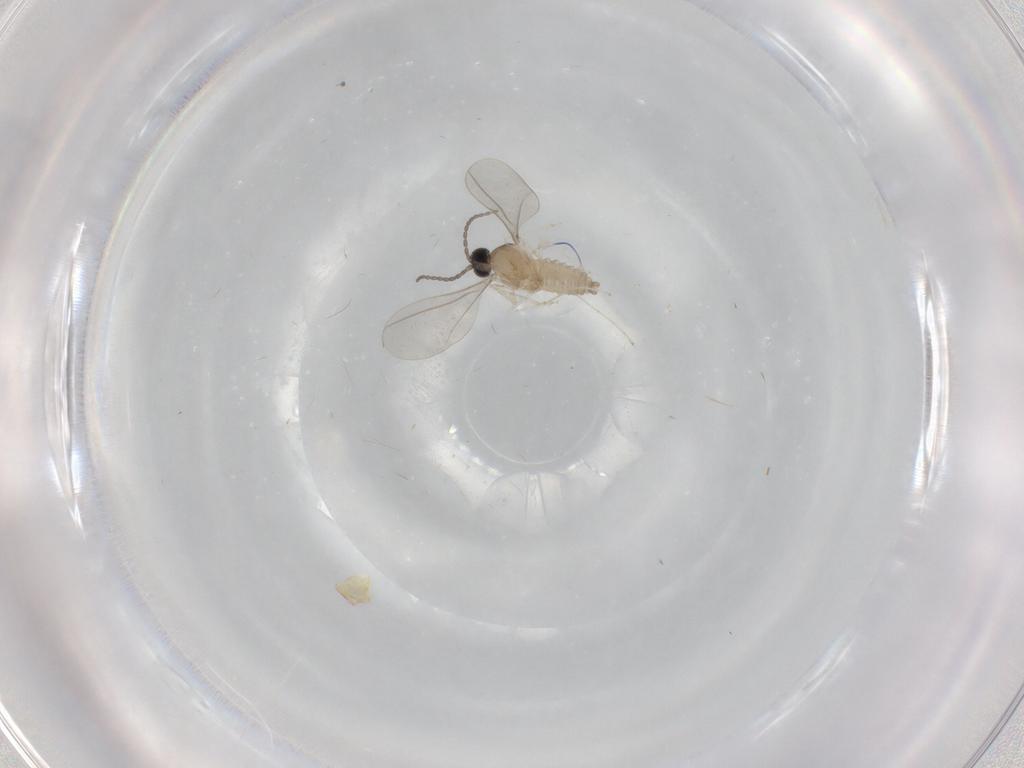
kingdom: Animalia
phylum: Arthropoda
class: Insecta
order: Diptera
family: Cecidomyiidae
